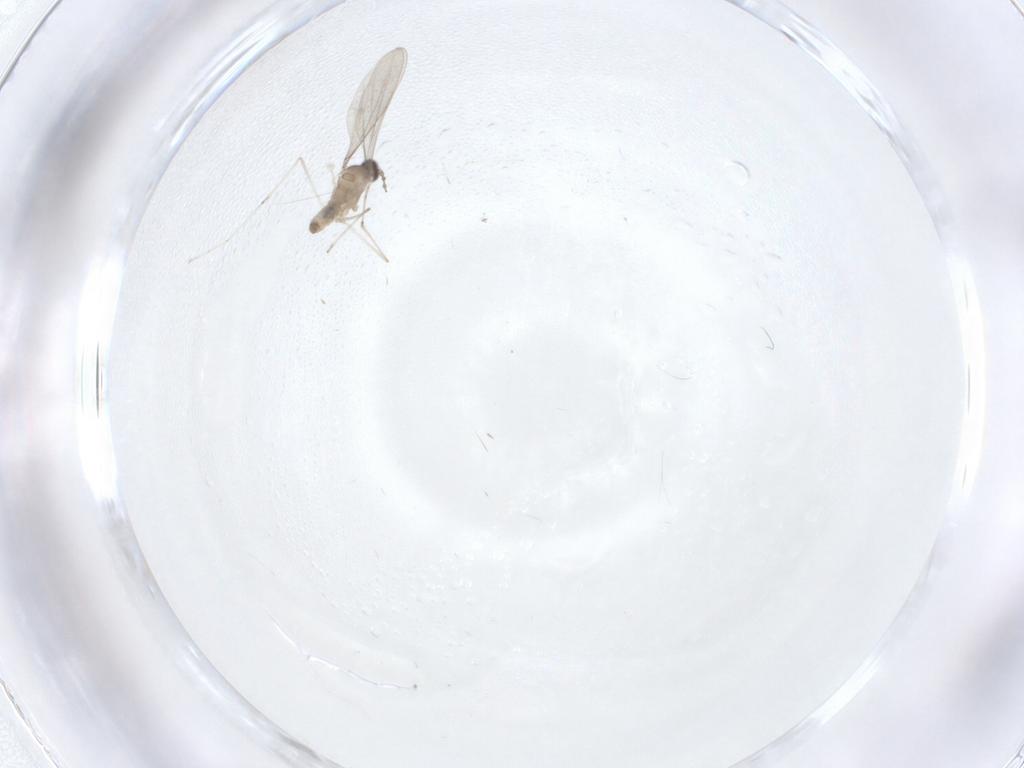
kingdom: Animalia
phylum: Arthropoda
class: Insecta
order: Diptera
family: Cecidomyiidae
